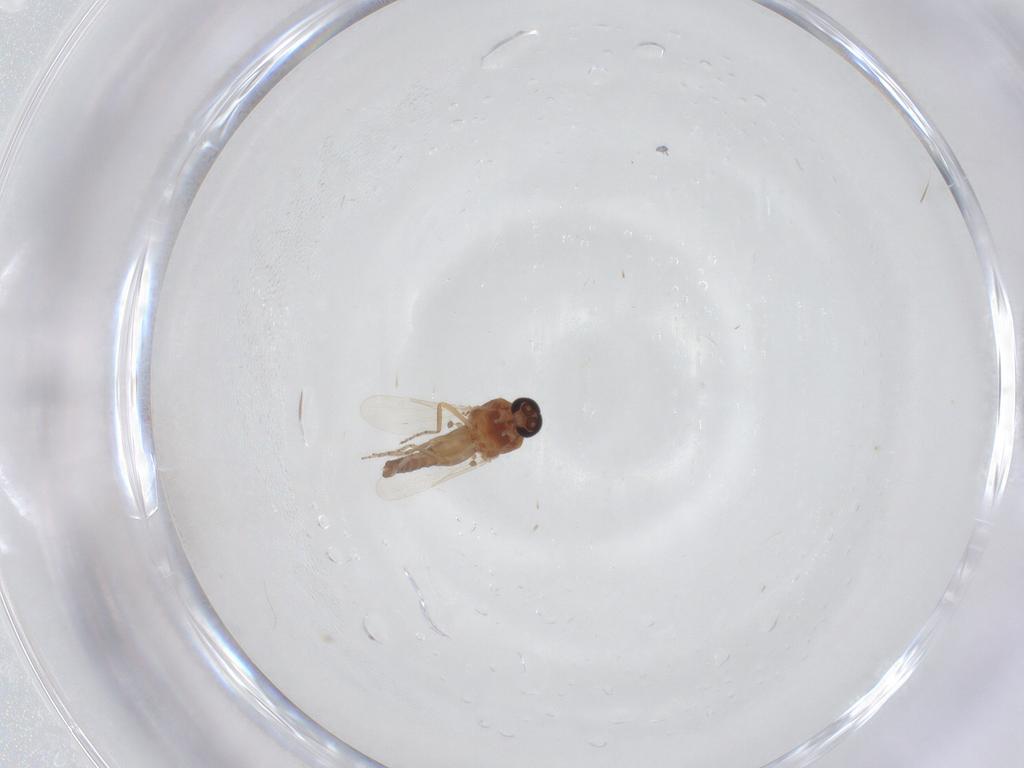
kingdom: Animalia
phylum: Arthropoda
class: Insecta
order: Diptera
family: Ceratopogonidae
